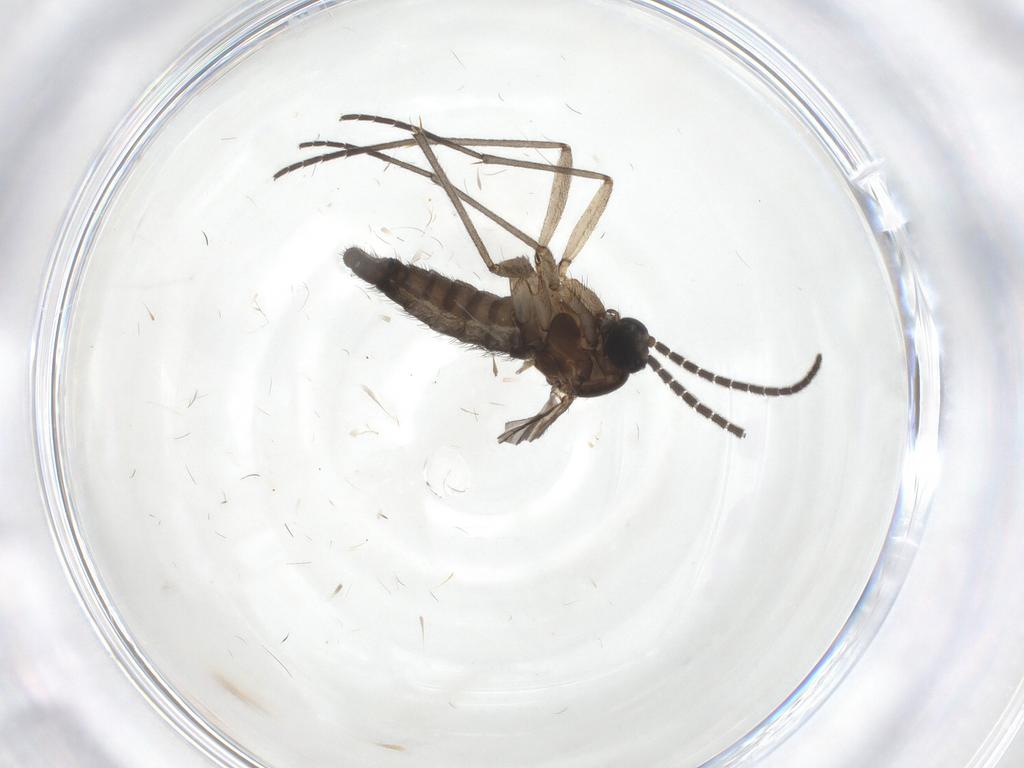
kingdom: Animalia
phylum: Arthropoda
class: Insecta
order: Diptera
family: Sciaridae
